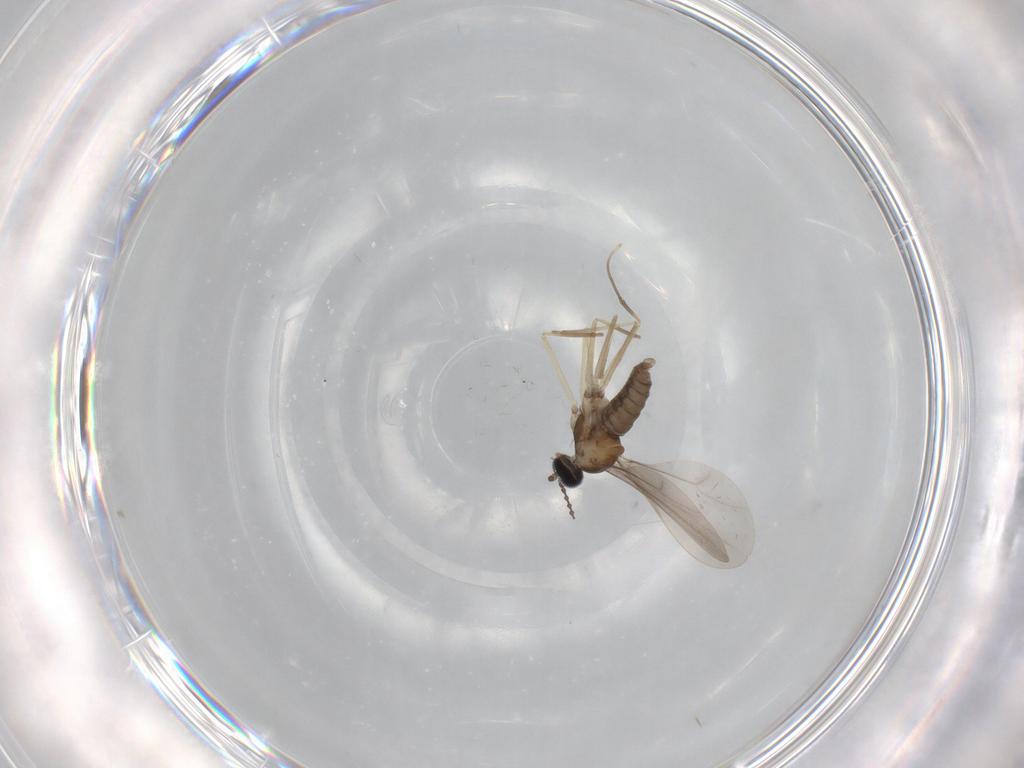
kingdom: Animalia
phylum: Arthropoda
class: Insecta
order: Diptera
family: Cecidomyiidae
